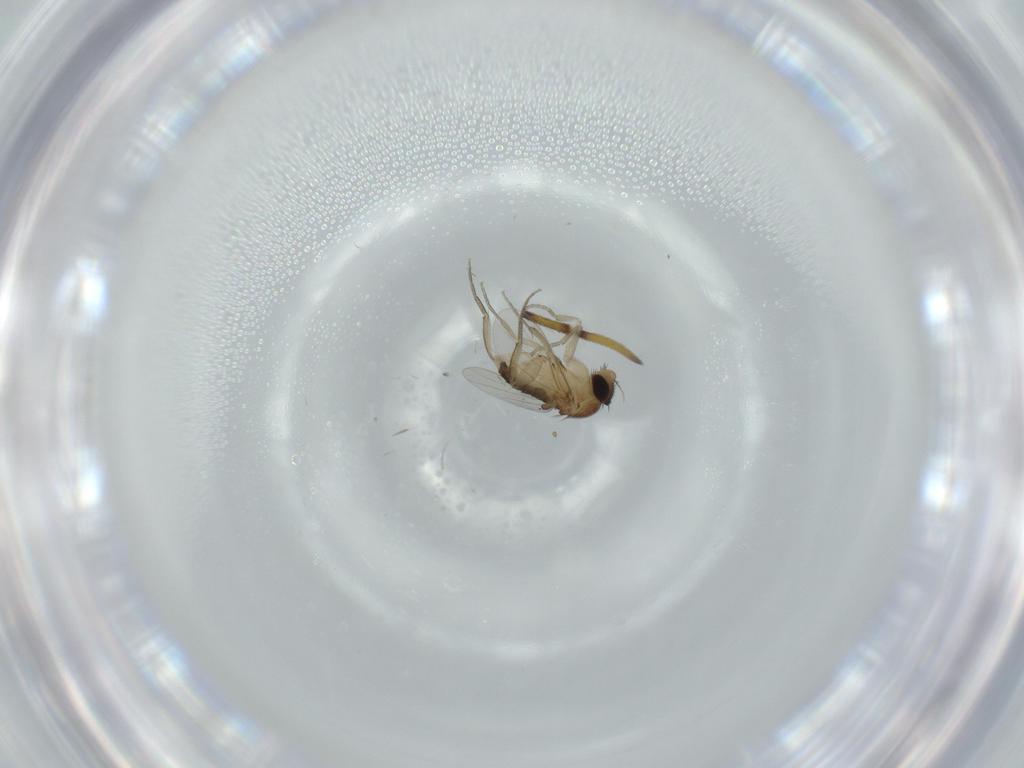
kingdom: Animalia
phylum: Arthropoda
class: Insecta
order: Diptera
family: Phoridae
